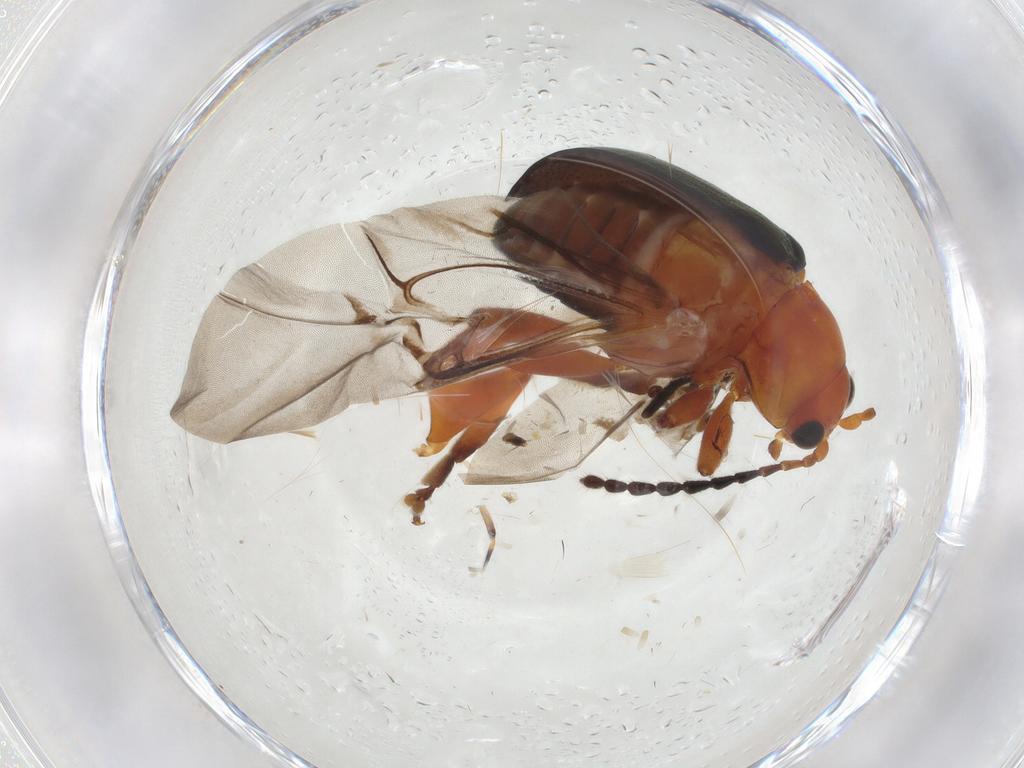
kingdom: Animalia
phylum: Arthropoda
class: Insecta
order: Coleoptera
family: Chrysomelidae
